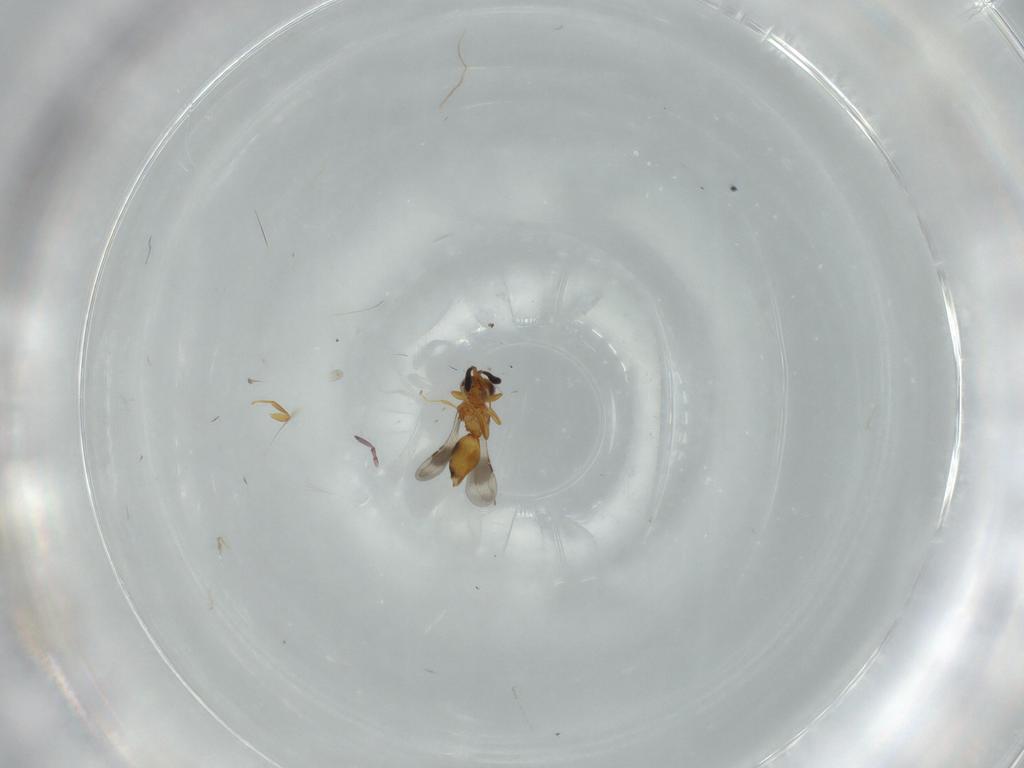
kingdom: Animalia
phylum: Arthropoda
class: Insecta
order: Hymenoptera
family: Aphelinidae
